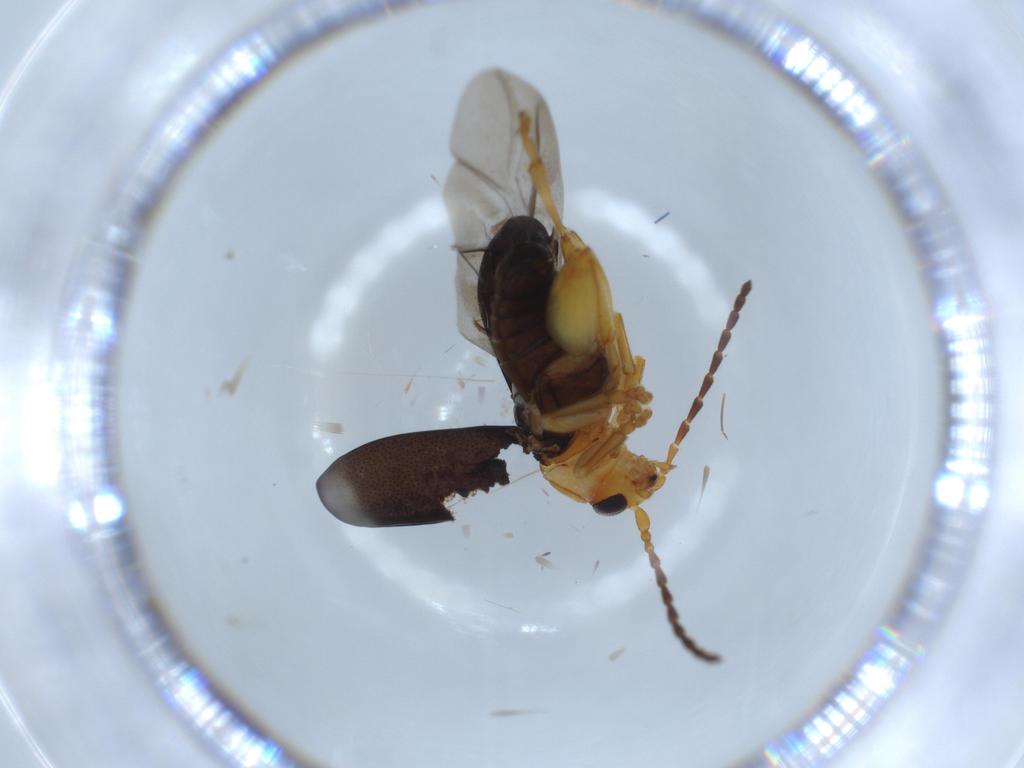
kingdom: Animalia
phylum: Arthropoda
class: Insecta
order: Coleoptera
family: Chrysomelidae
